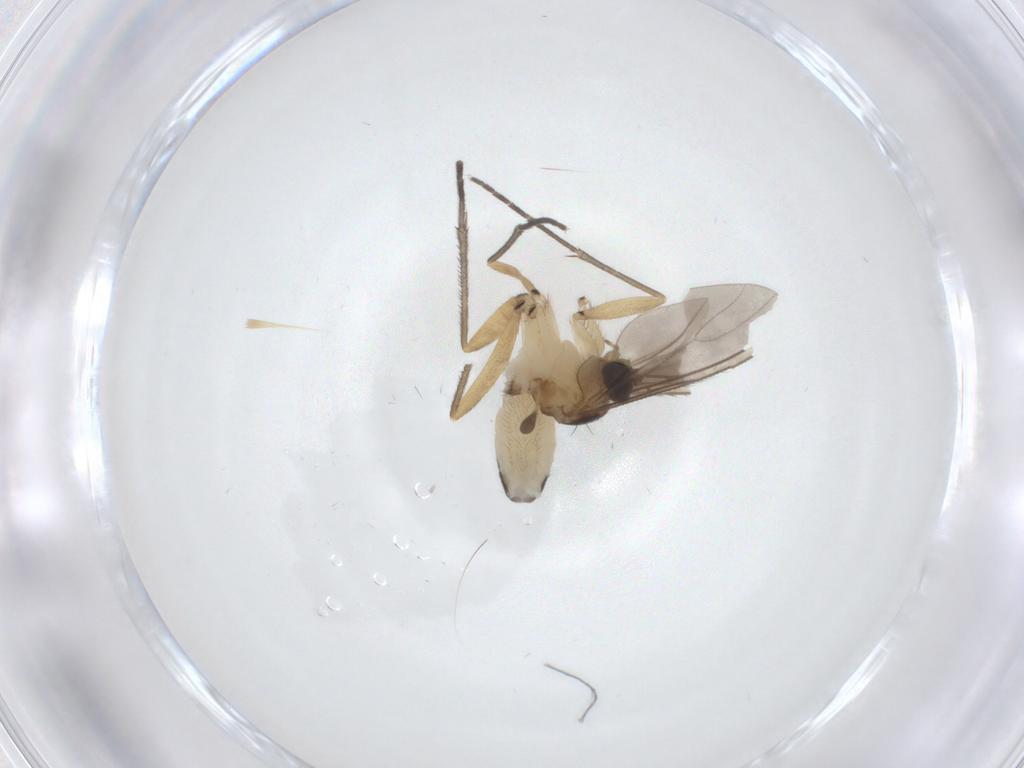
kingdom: Animalia
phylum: Arthropoda
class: Insecta
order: Diptera
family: Sciaridae
